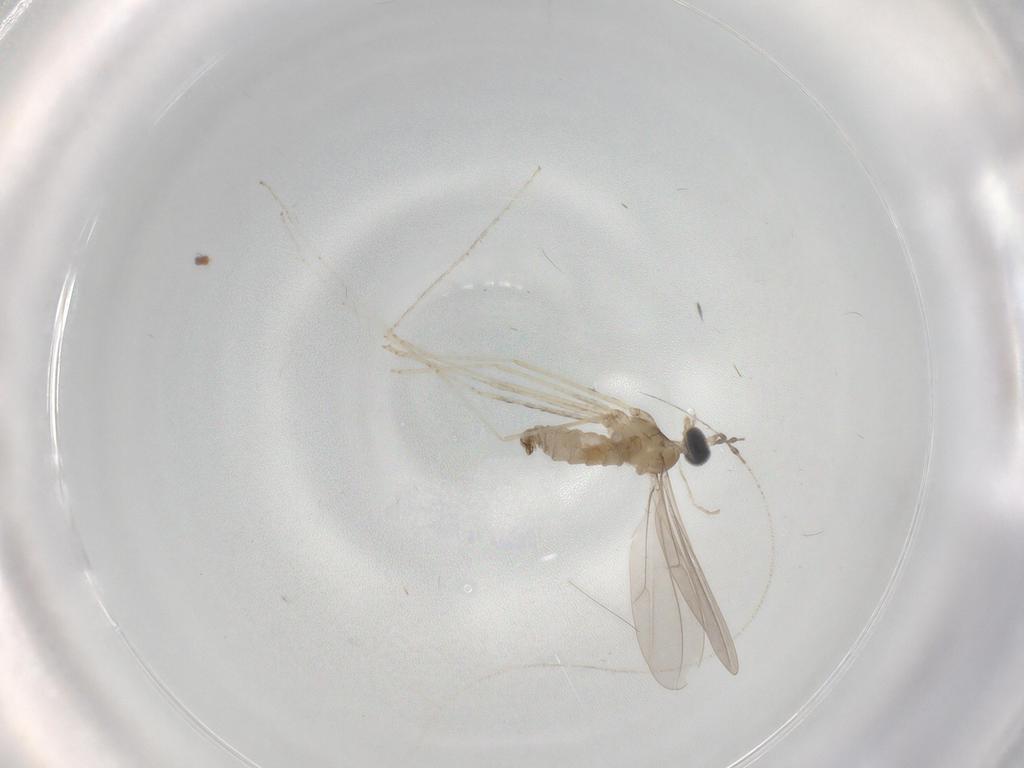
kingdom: Animalia
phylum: Arthropoda
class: Insecta
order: Diptera
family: Cecidomyiidae
